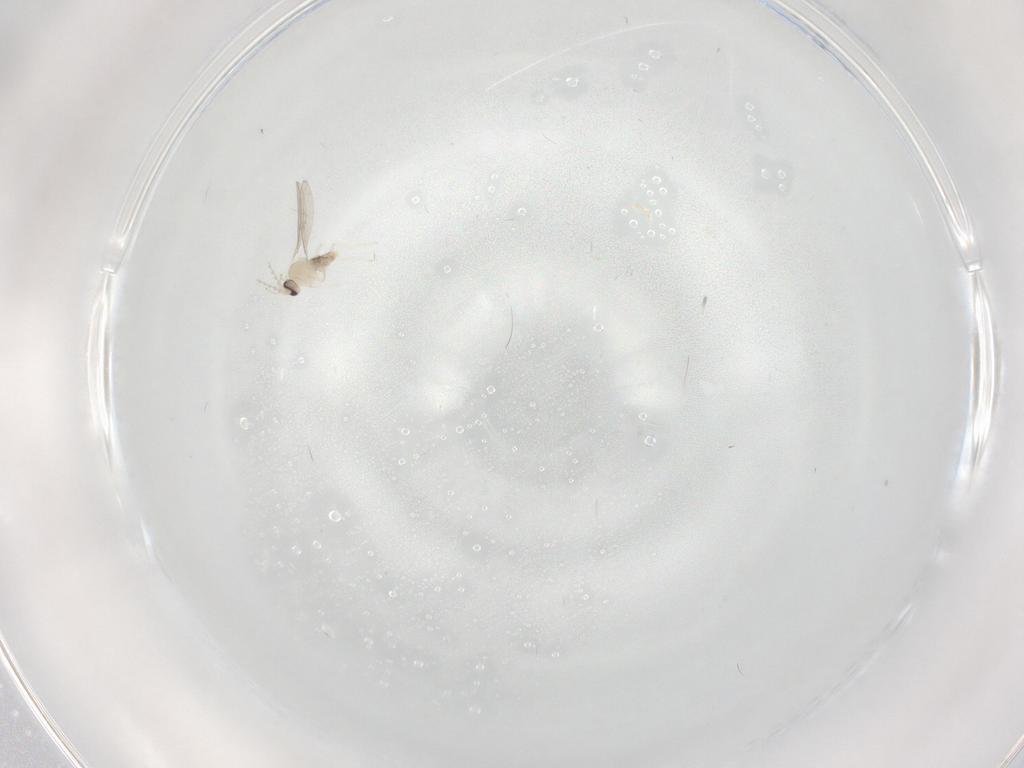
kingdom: Animalia
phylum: Arthropoda
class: Insecta
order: Diptera
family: Limoniidae
